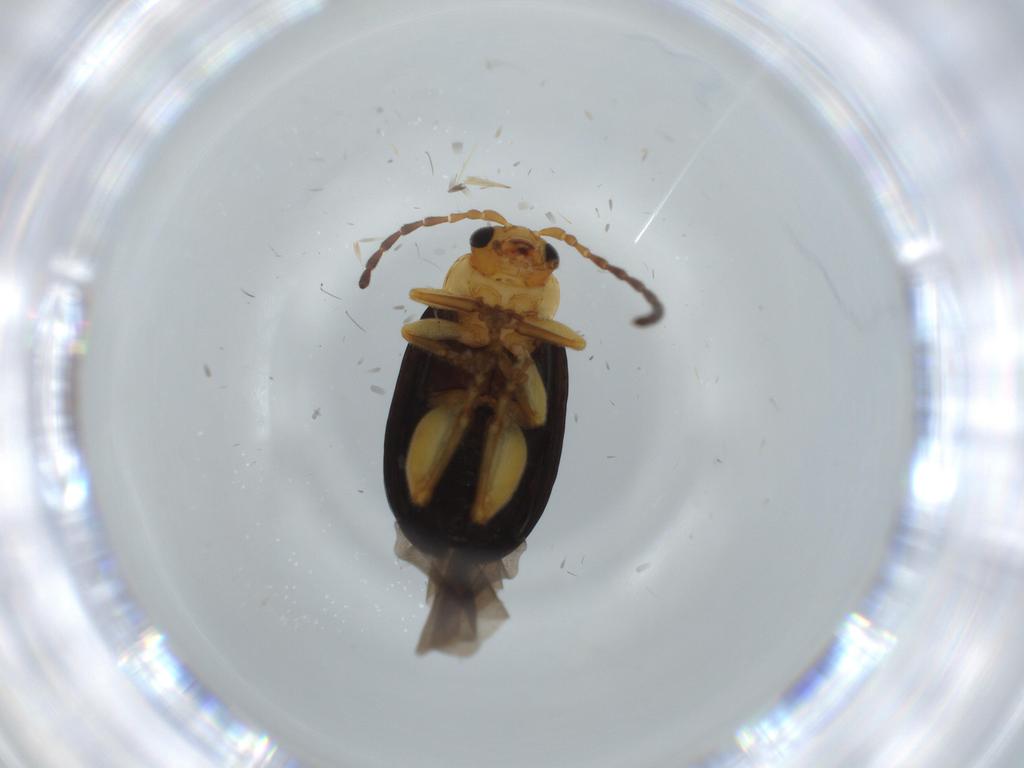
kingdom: Animalia
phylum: Arthropoda
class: Insecta
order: Coleoptera
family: Chrysomelidae
